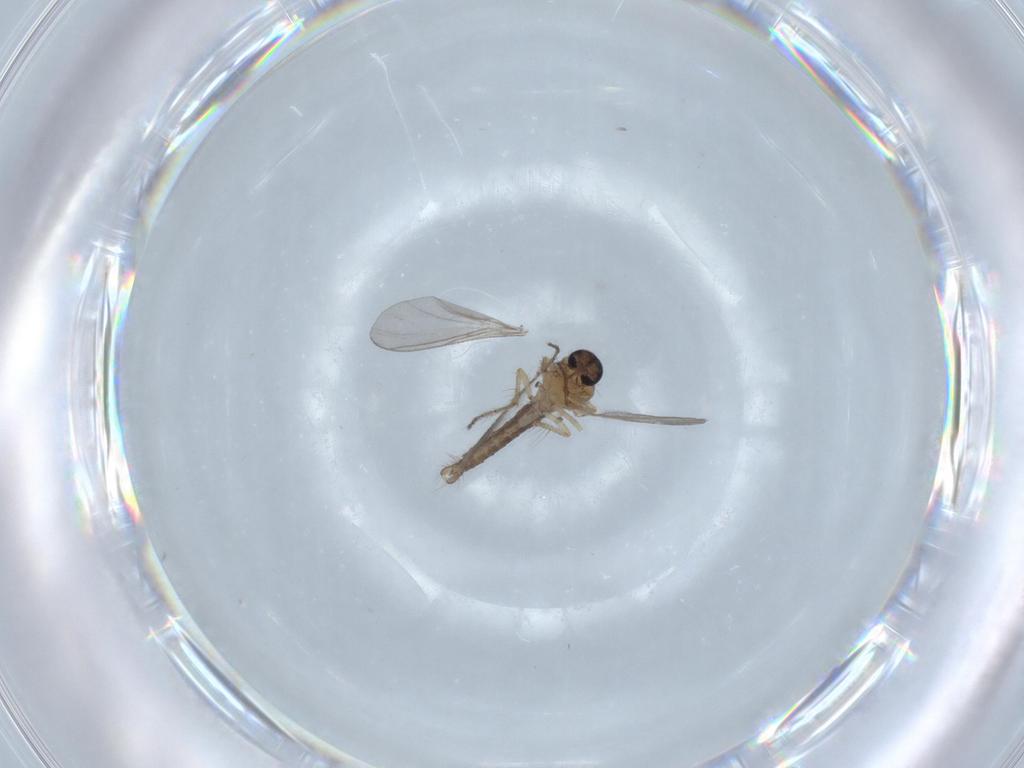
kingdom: Animalia
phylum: Arthropoda
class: Insecta
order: Diptera
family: Ceratopogonidae
